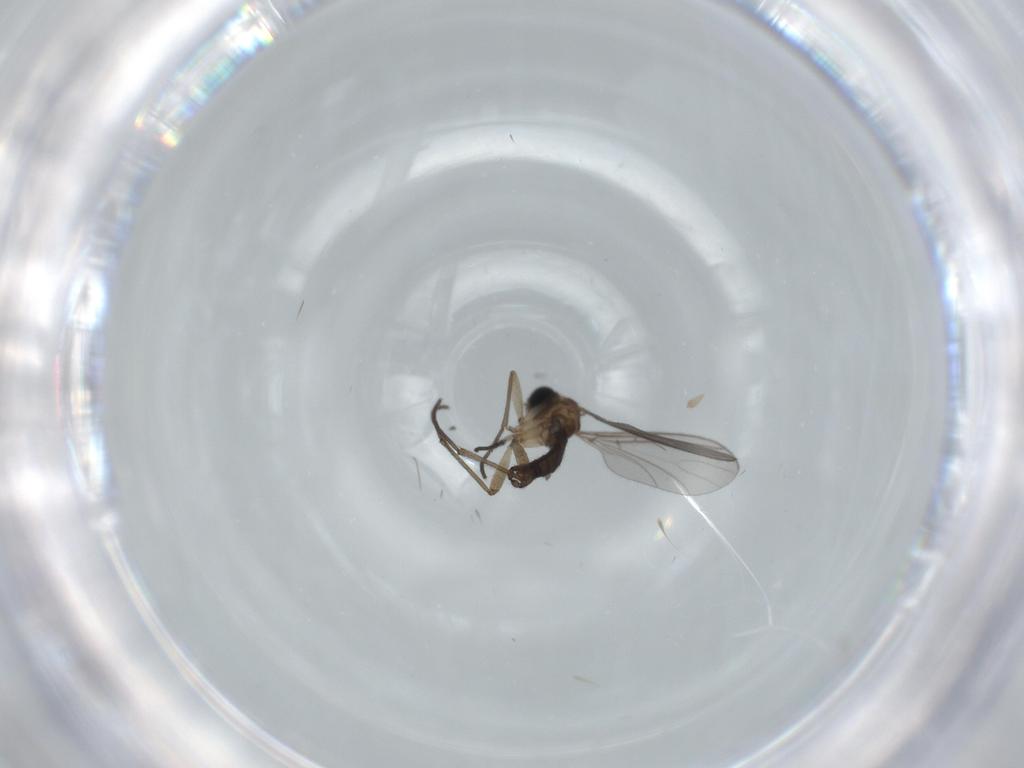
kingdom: Animalia
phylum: Arthropoda
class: Insecta
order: Diptera
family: Sciaridae
